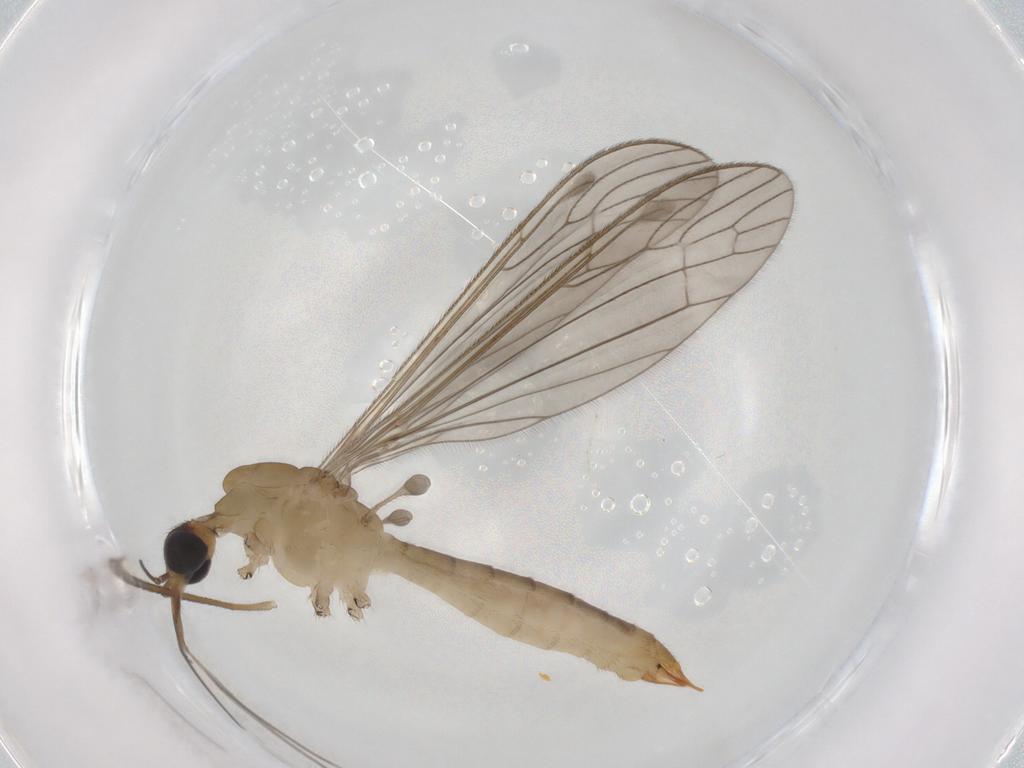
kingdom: Animalia
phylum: Arthropoda
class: Insecta
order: Diptera
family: Limoniidae
